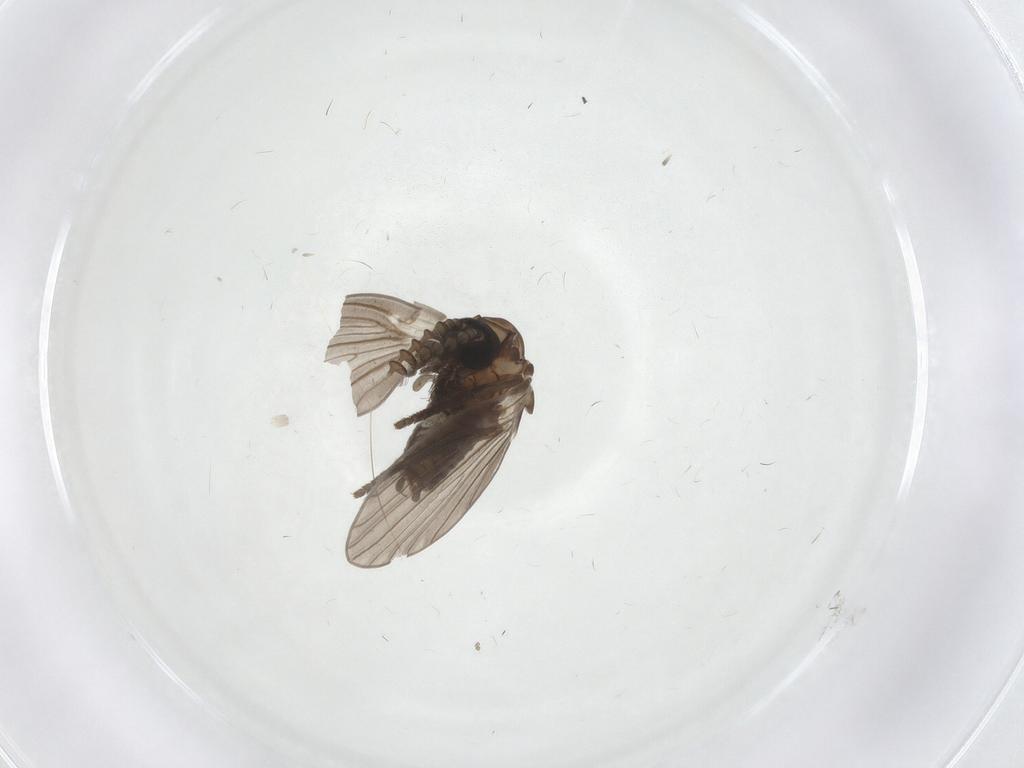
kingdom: Animalia
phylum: Arthropoda
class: Insecta
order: Diptera
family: Psychodidae
